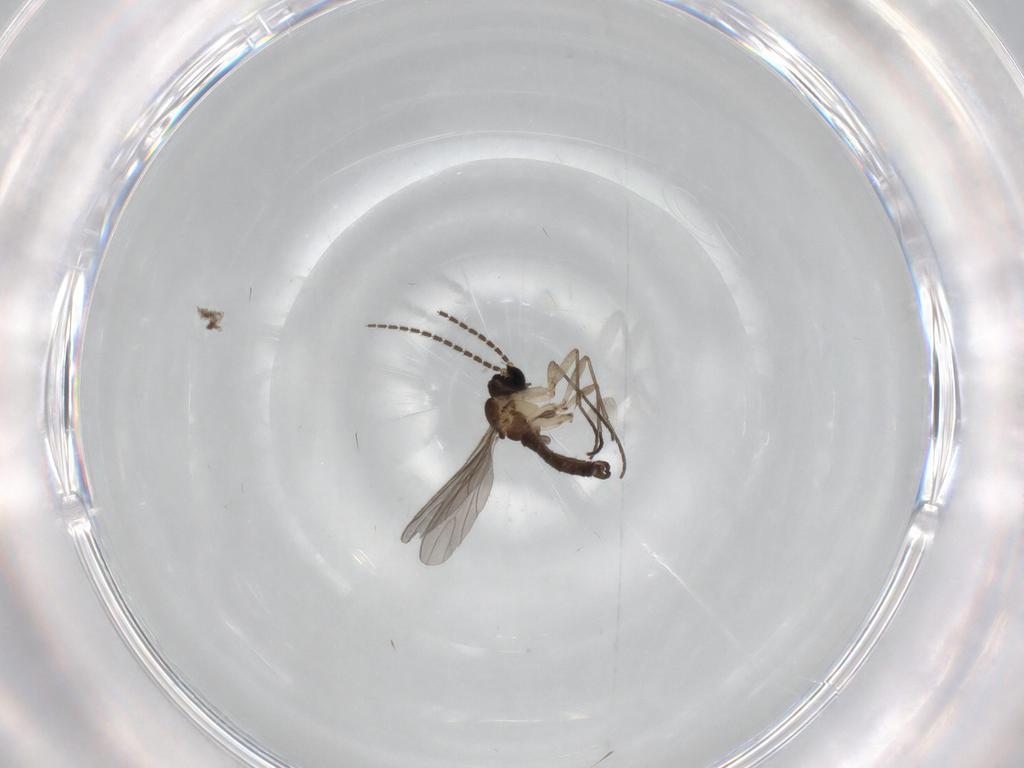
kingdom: Animalia
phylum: Arthropoda
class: Insecta
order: Diptera
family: Sciaridae
